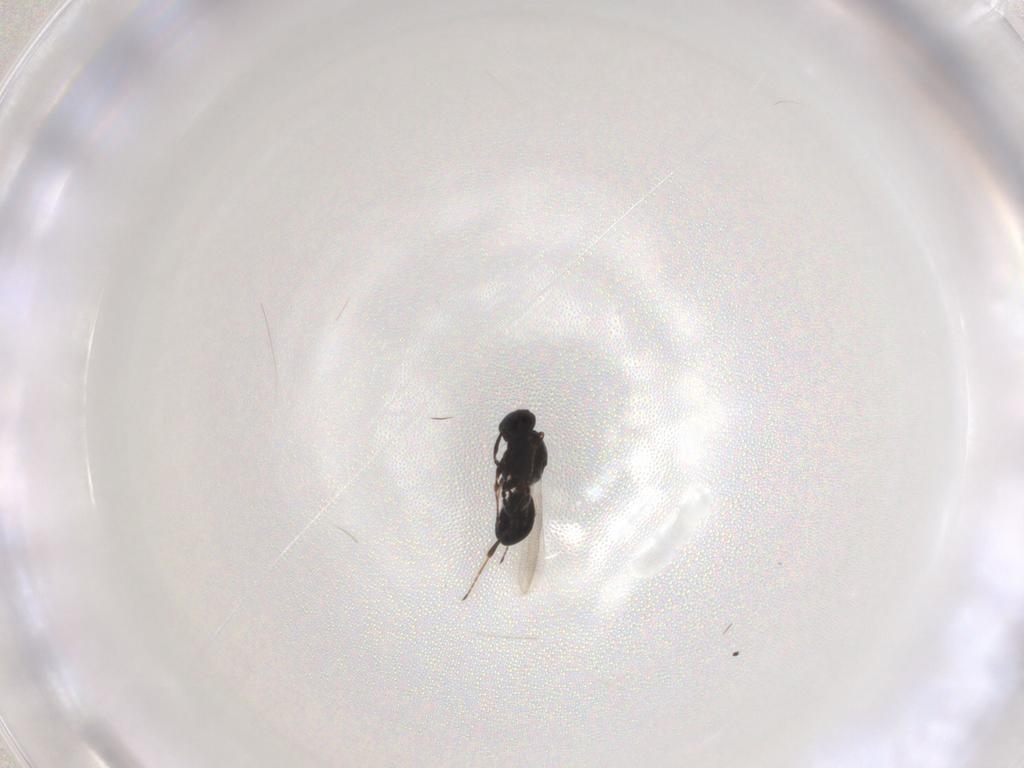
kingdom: Animalia
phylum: Arthropoda
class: Insecta
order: Hymenoptera
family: Platygastridae
